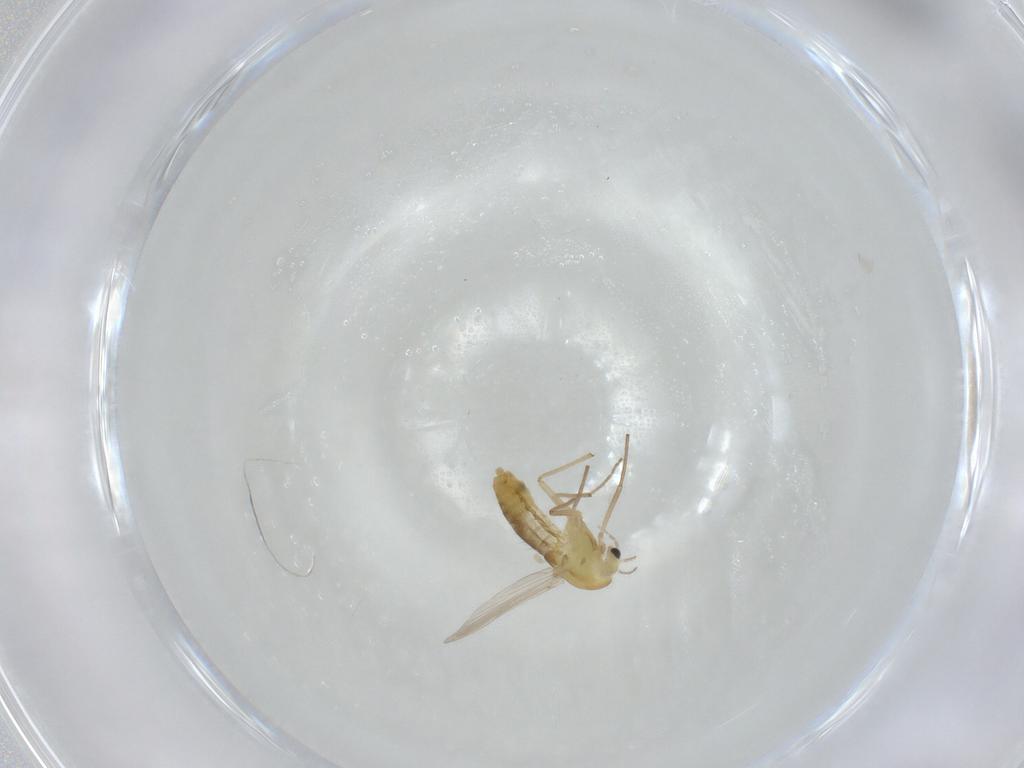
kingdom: Animalia
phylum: Arthropoda
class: Insecta
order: Diptera
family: Chironomidae
